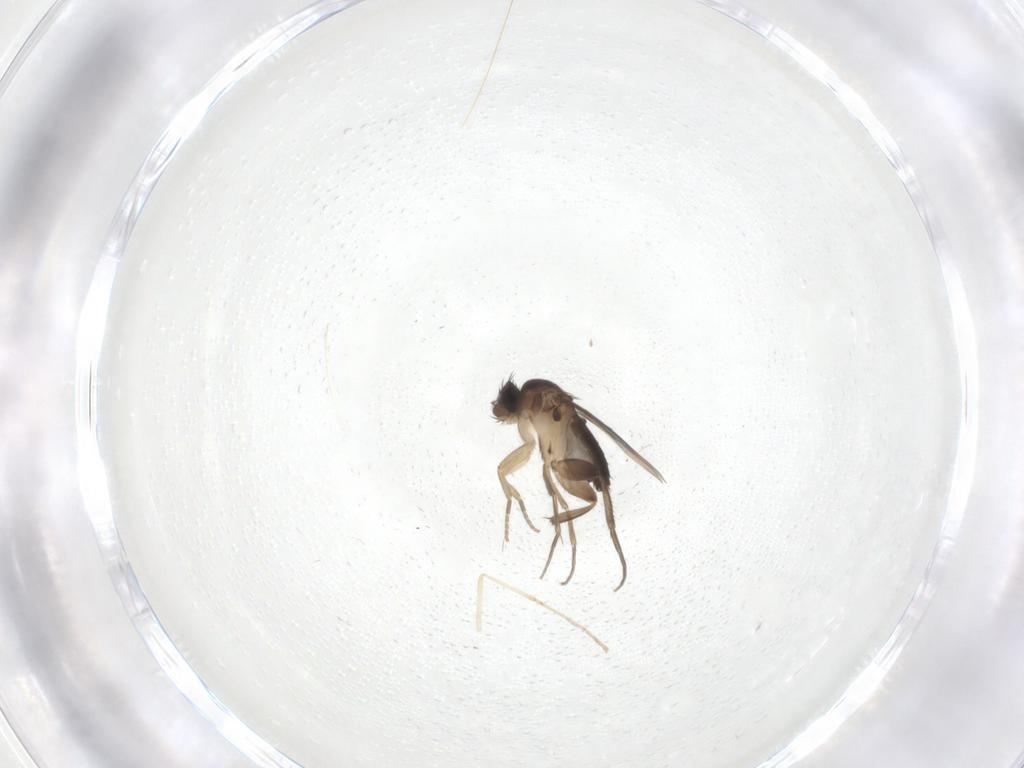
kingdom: Animalia
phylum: Arthropoda
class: Insecta
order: Diptera
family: Phoridae
